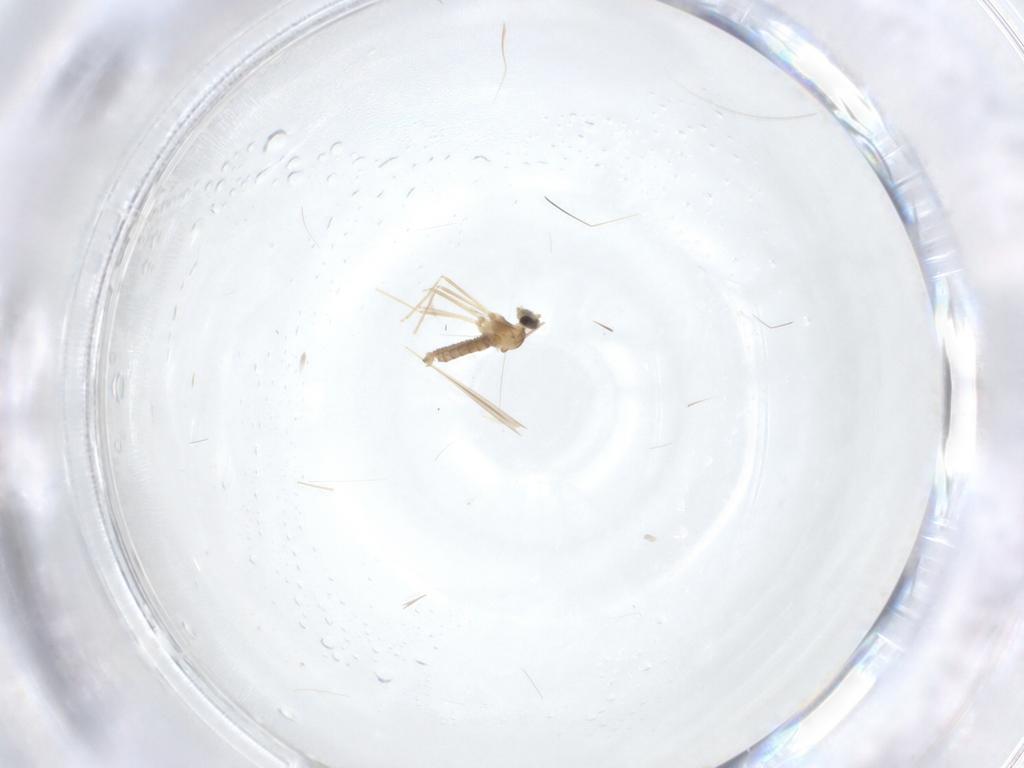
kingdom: Animalia
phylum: Arthropoda
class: Insecta
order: Diptera
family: Cecidomyiidae
